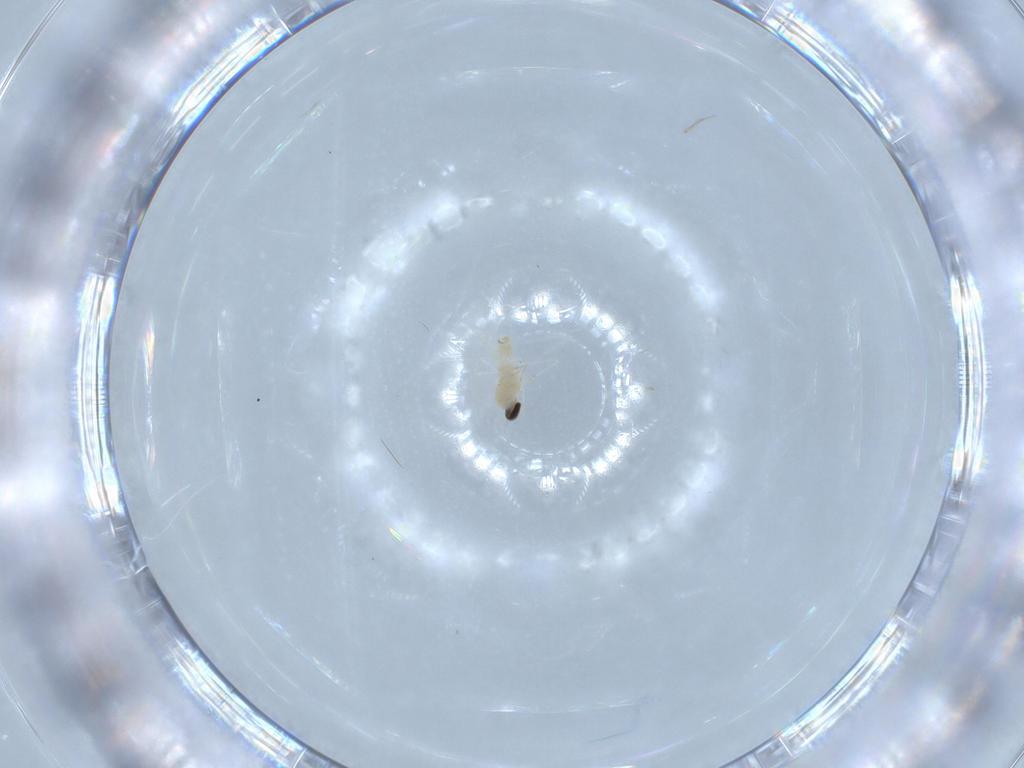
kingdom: Animalia
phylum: Arthropoda
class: Insecta
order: Diptera
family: Cecidomyiidae
